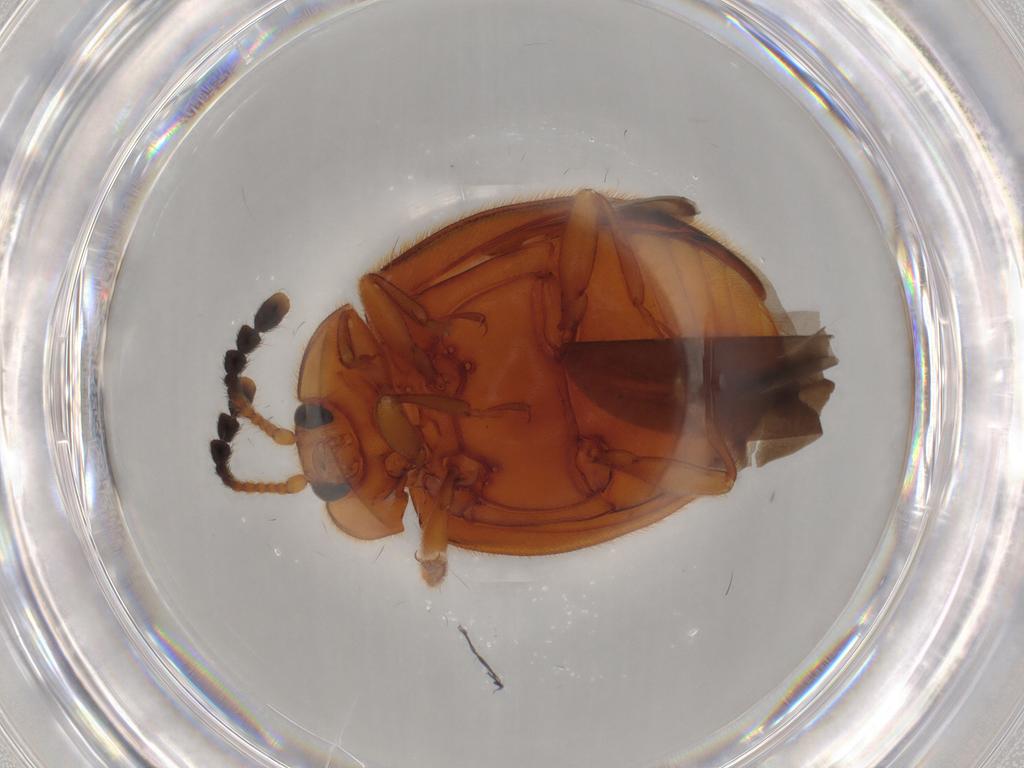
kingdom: Animalia
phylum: Arthropoda
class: Insecta
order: Coleoptera
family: Endomychidae
